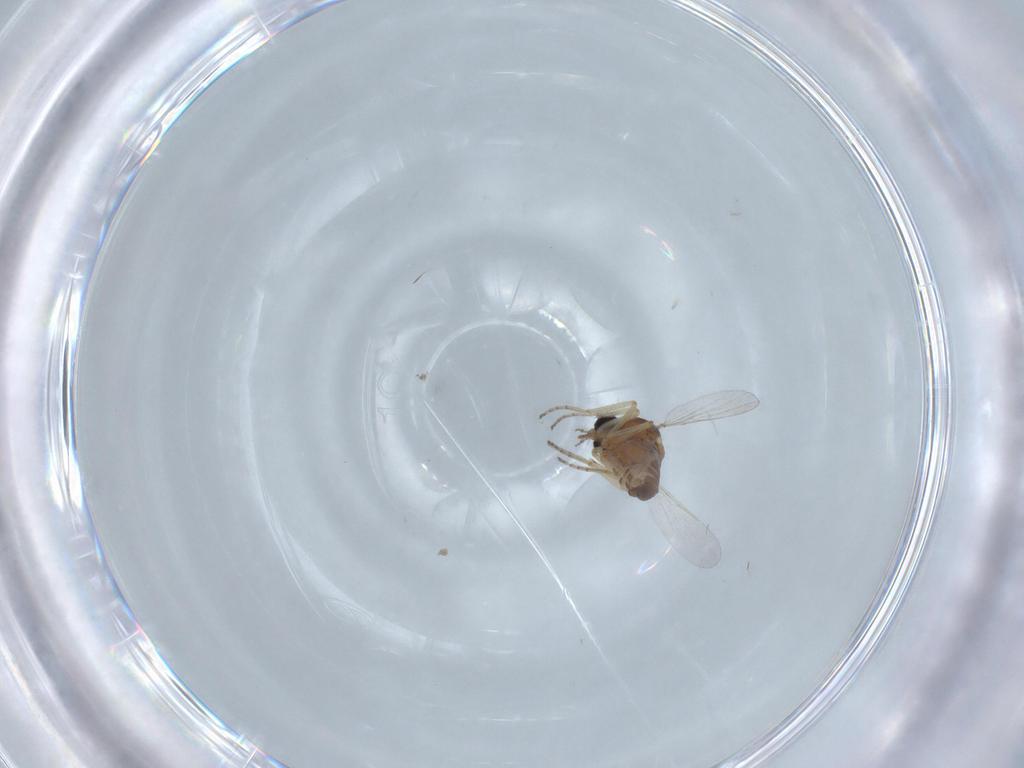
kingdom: Animalia
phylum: Arthropoda
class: Insecta
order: Diptera
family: Ceratopogonidae
